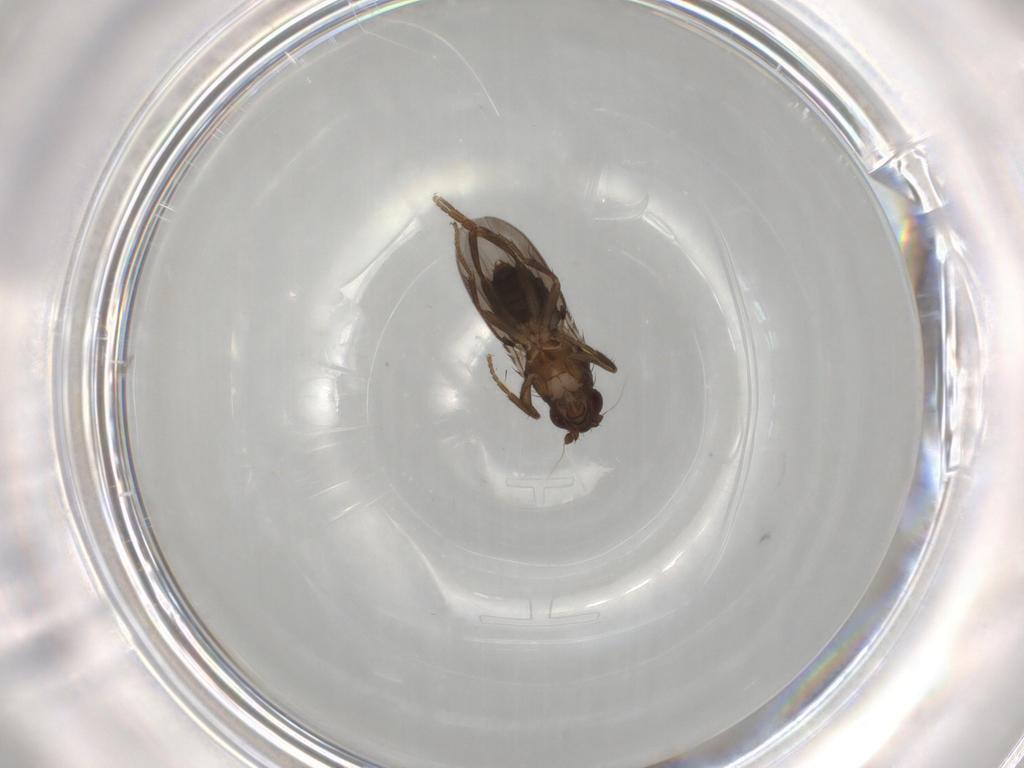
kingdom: Animalia
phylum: Arthropoda
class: Insecta
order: Diptera
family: Sphaeroceridae
